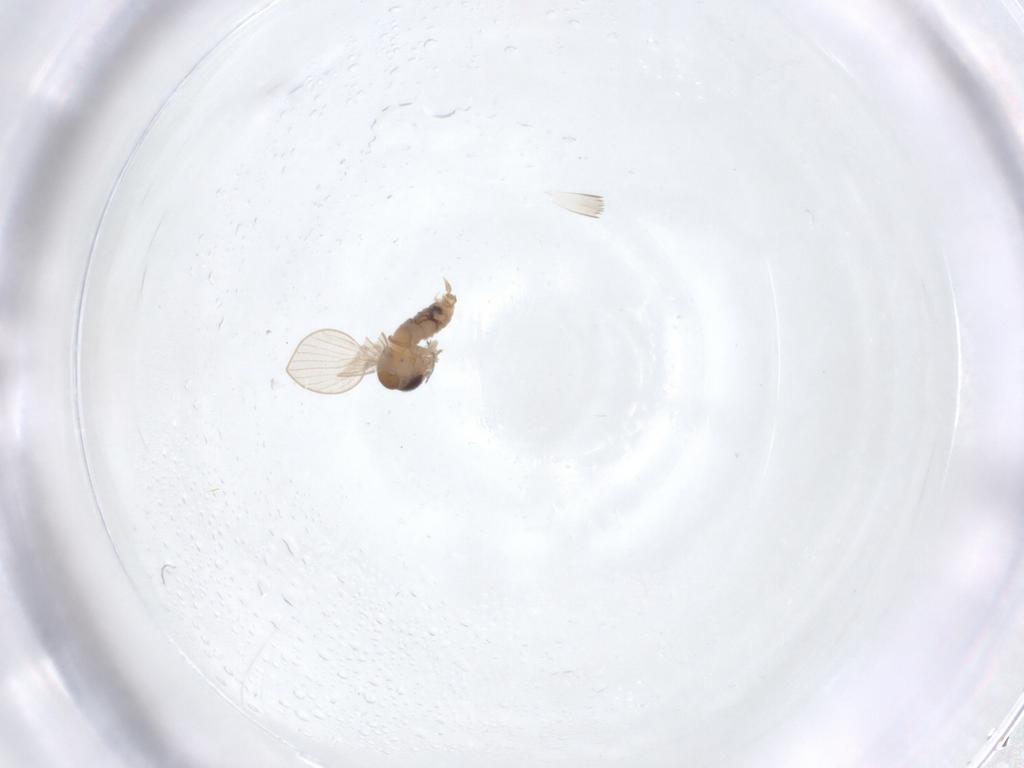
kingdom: Animalia
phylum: Arthropoda
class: Insecta
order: Diptera
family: Psychodidae
